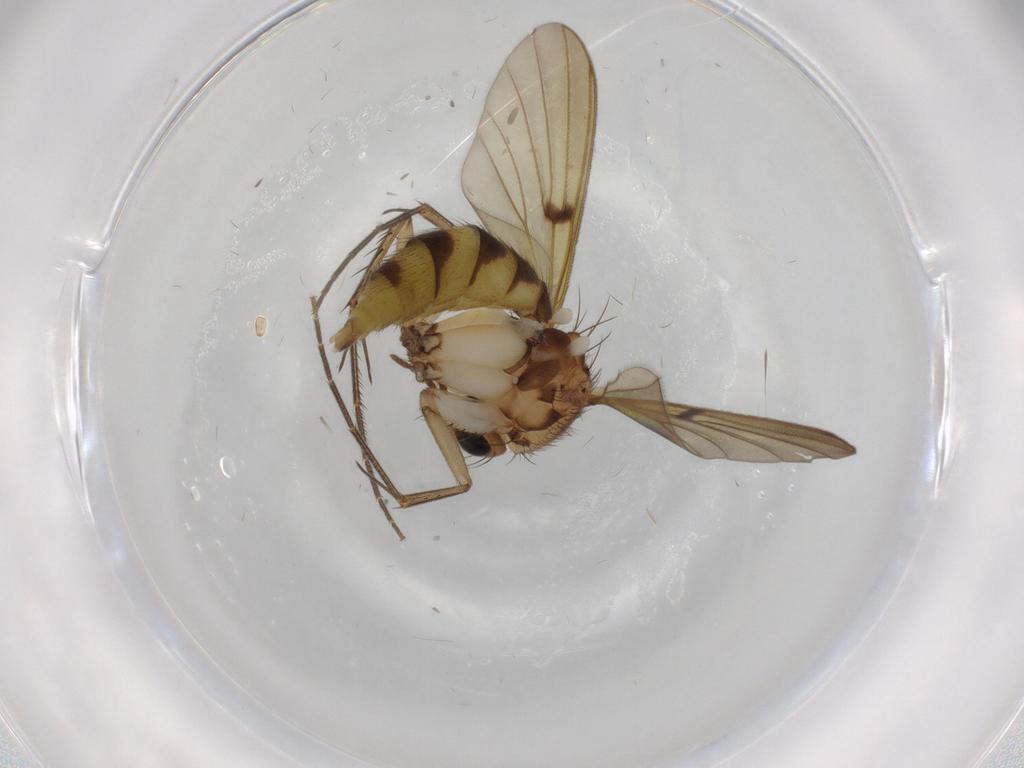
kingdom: Animalia
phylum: Arthropoda
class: Insecta
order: Diptera
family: Mycetophilidae
